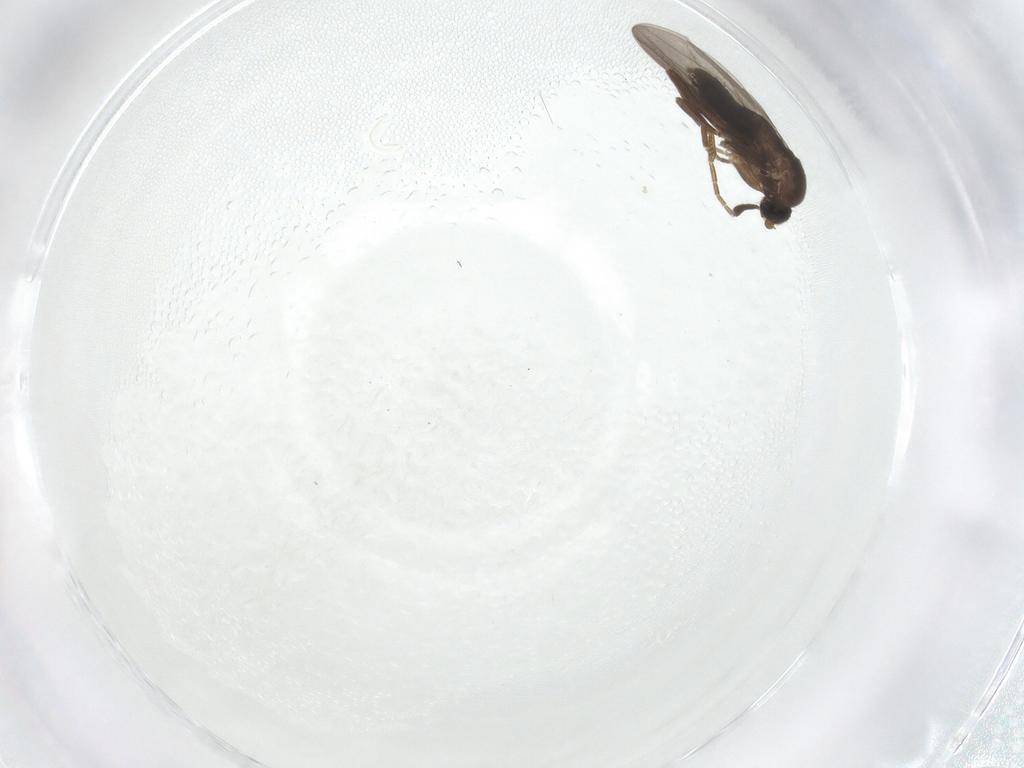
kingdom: Animalia
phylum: Arthropoda
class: Insecta
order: Diptera
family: Phoridae
